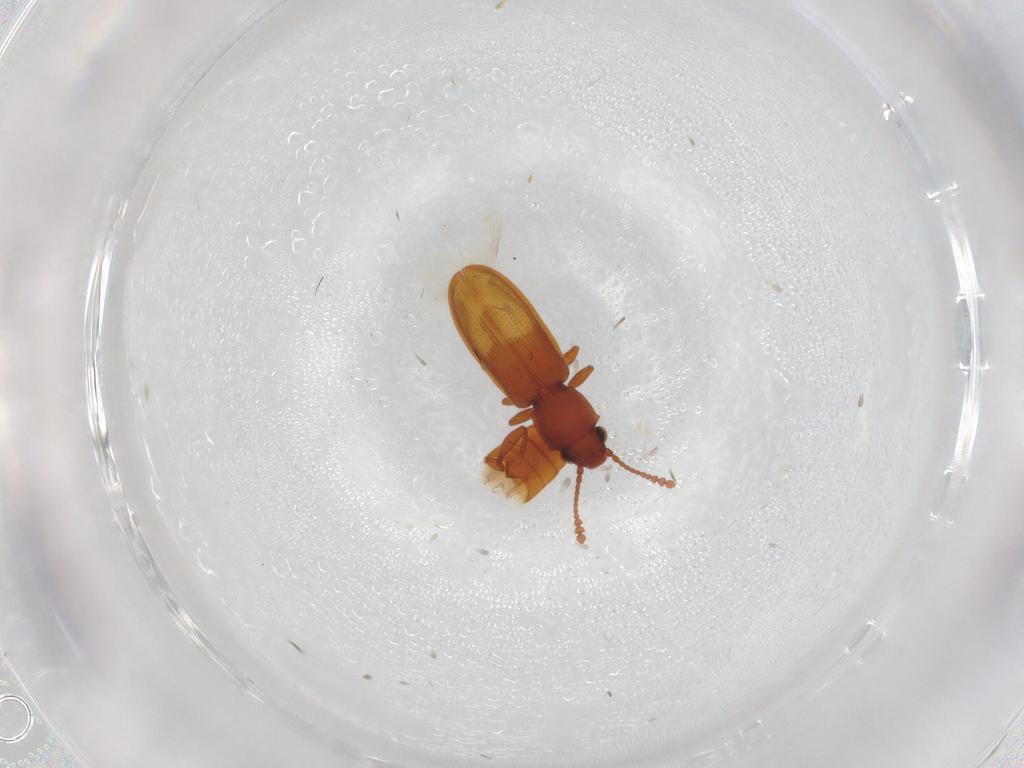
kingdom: Animalia
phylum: Arthropoda
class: Insecta
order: Coleoptera
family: Silvanidae
